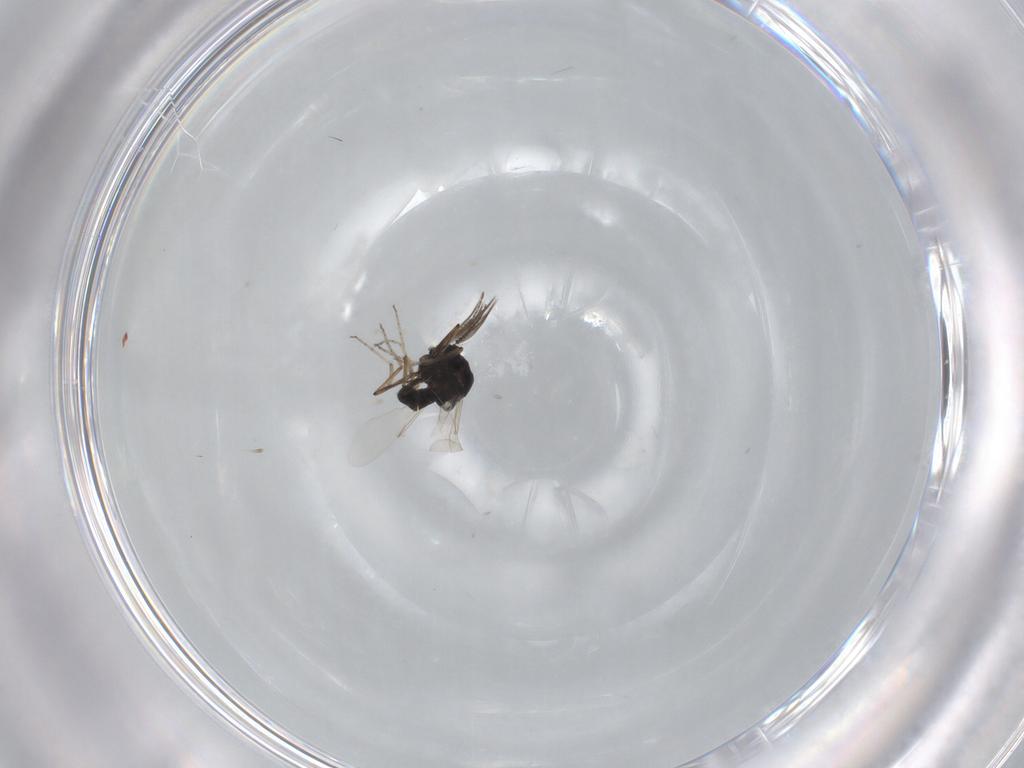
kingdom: Animalia
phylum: Arthropoda
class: Insecta
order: Diptera
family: Ceratopogonidae
